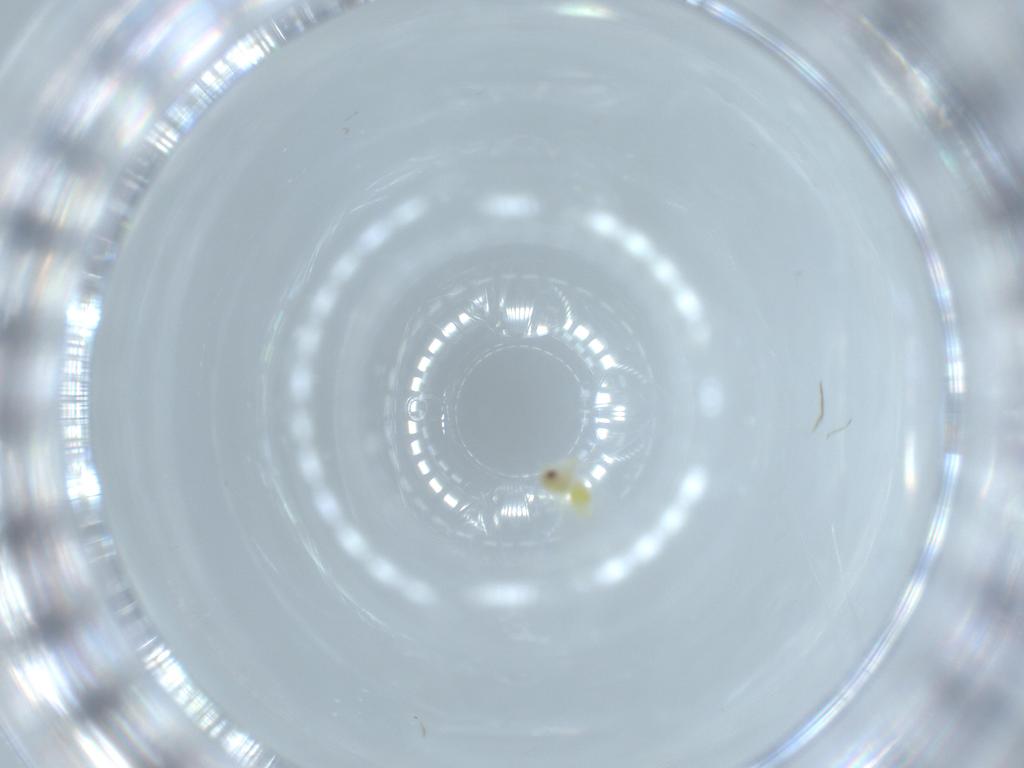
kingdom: Animalia
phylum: Arthropoda
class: Insecta
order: Hemiptera
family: Aleyrodidae
